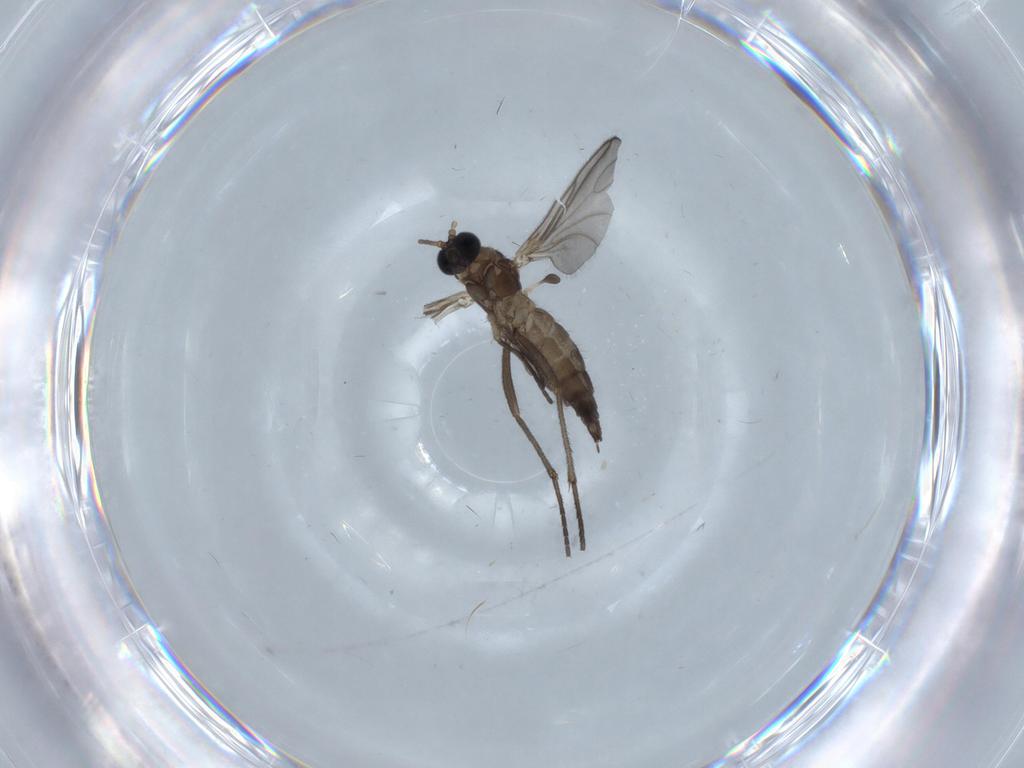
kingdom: Animalia
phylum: Arthropoda
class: Insecta
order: Diptera
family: Sciaridae
